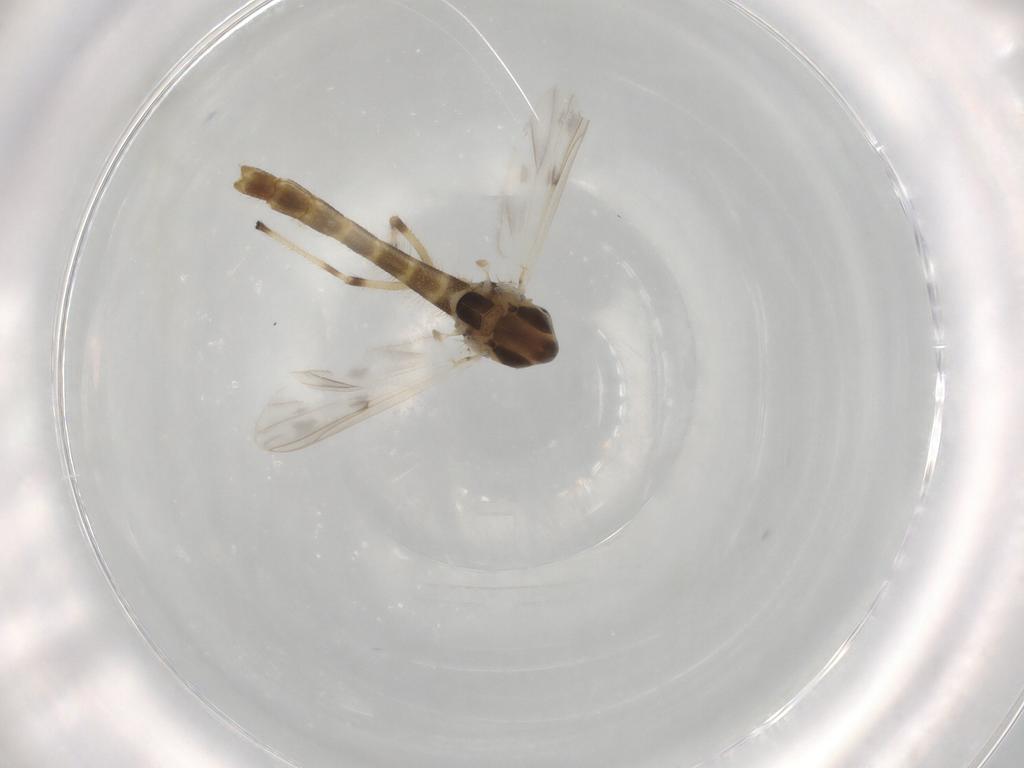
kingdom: Animalia
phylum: Arthropoda
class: Insecta
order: Diptera
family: Chironomidae
